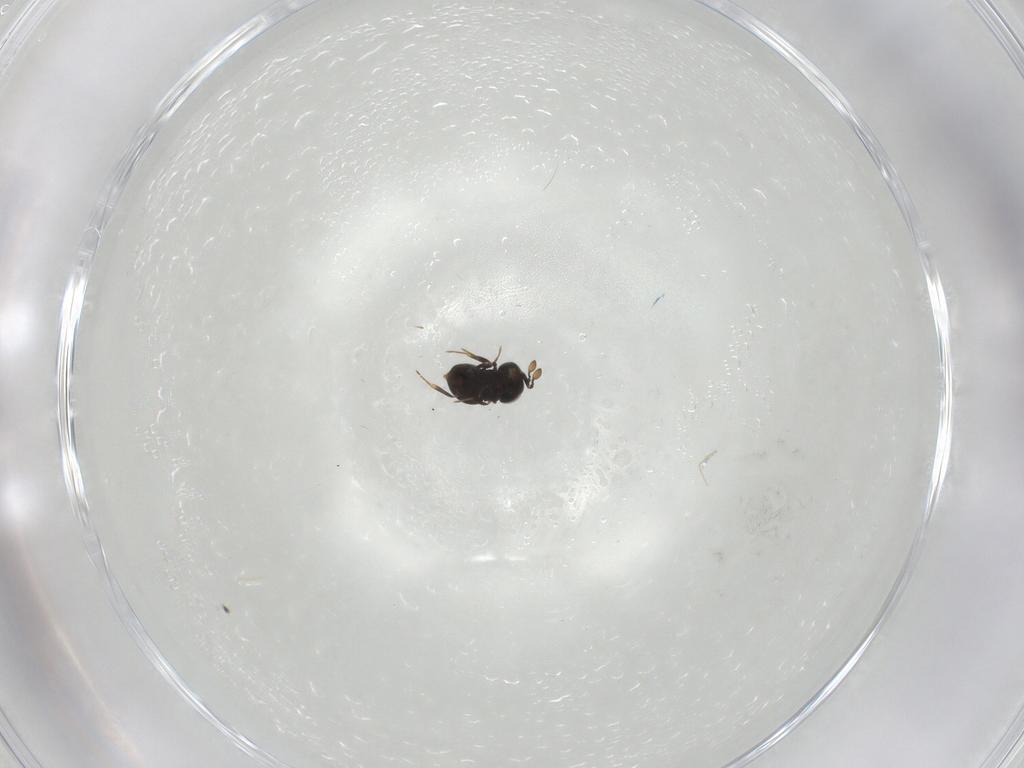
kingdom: Animalia
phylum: Arthropoda
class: Insecta
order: Hymenoptera
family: Scelionidae
